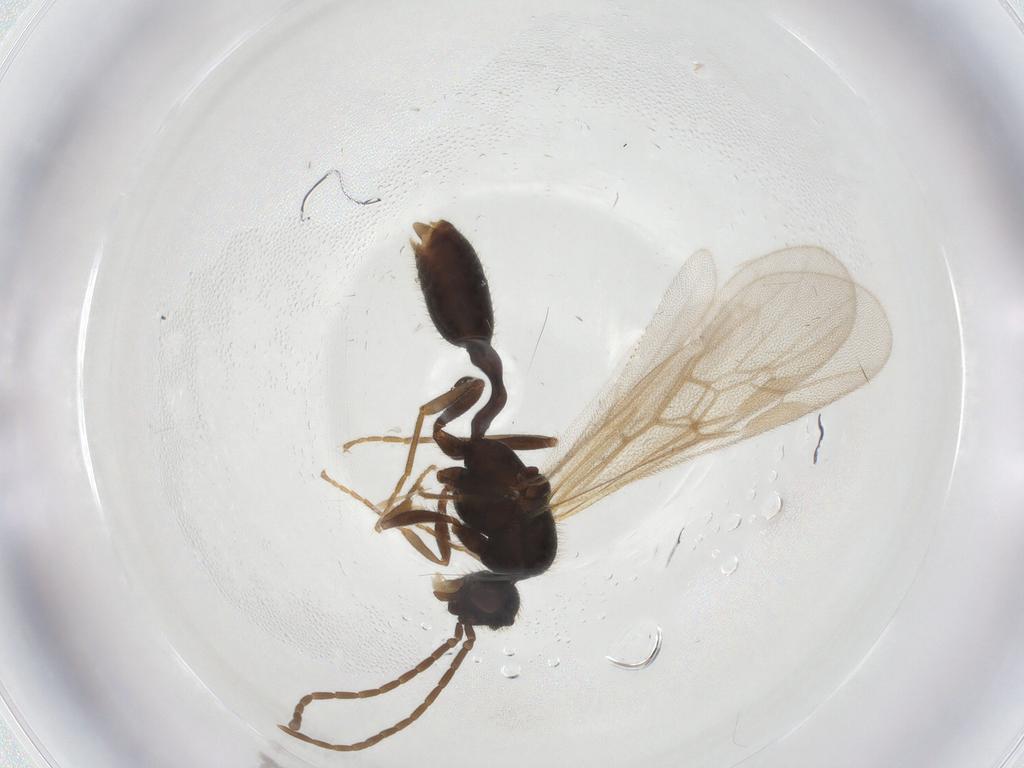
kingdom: Animalia
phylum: Arthropoda
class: Insecta
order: Hymenoptera
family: Formicidae
